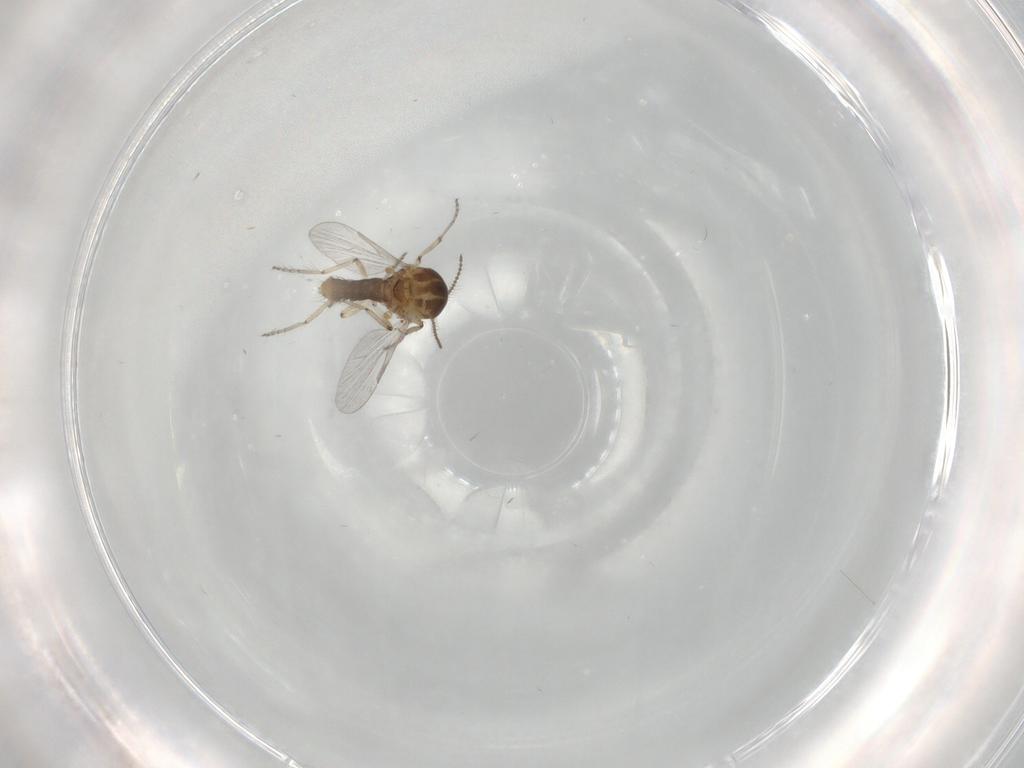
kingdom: Animalia
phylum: Arthropoda
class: Insecta
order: Diptera
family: Ceratopogonidae
